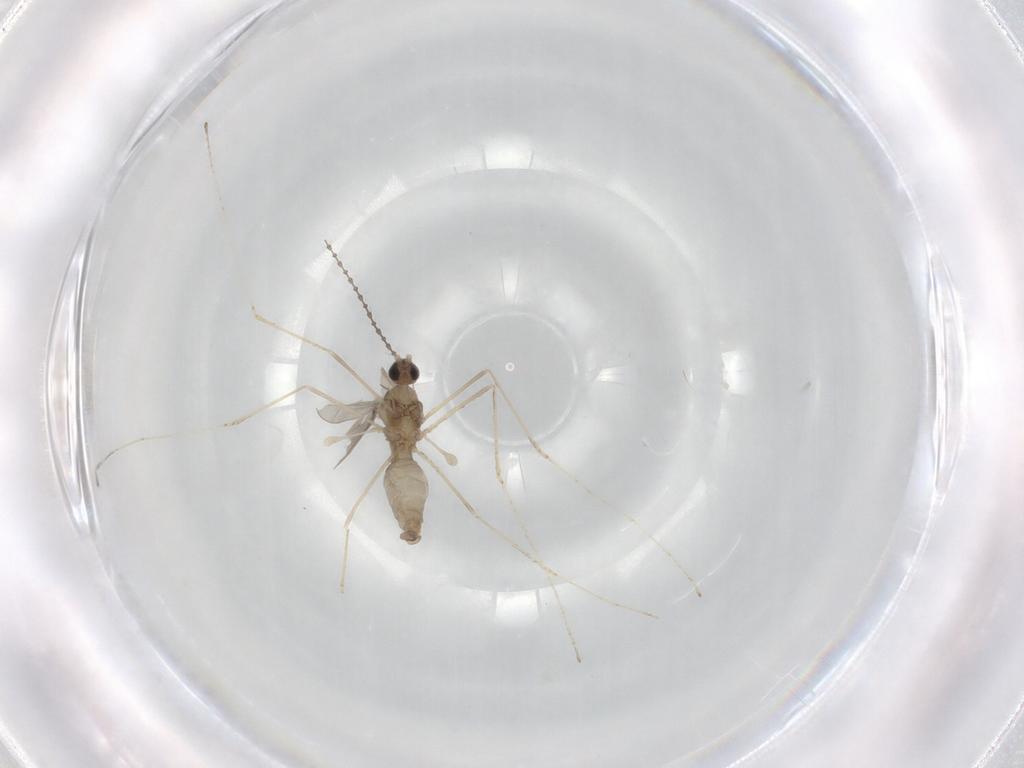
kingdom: Animalia
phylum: Arthropoda
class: Insecta
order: Diptera
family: Cecidomyiidae
